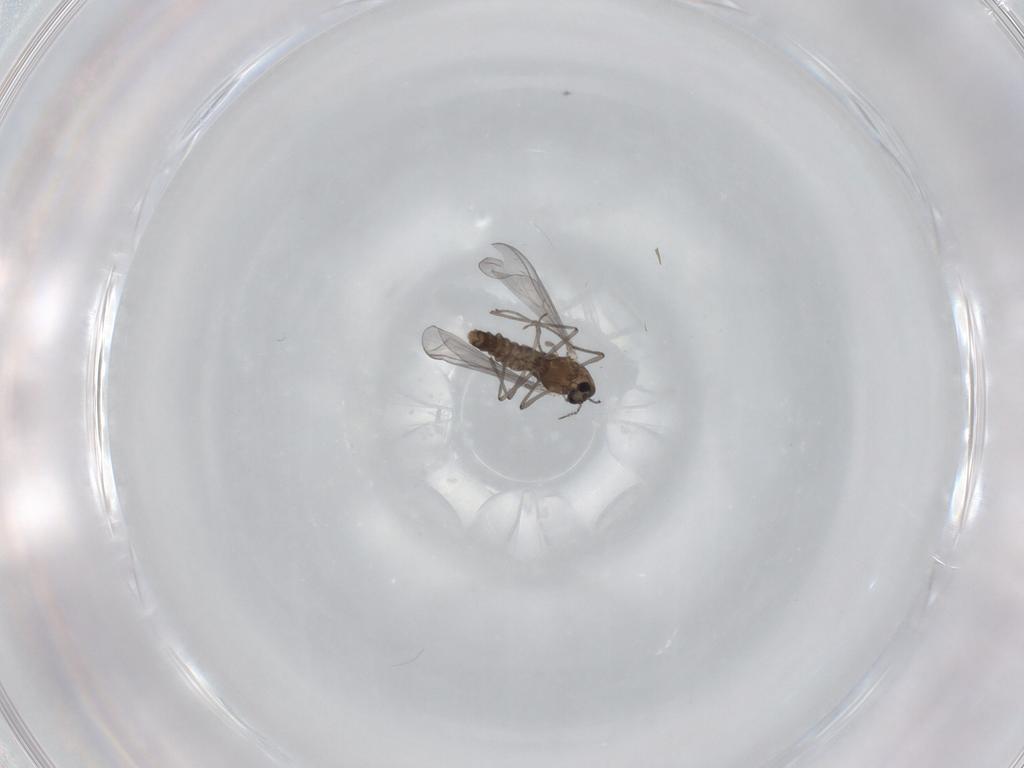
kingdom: Animalia
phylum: Arthropoda
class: Insecta
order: Diptera
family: Chironomidae
